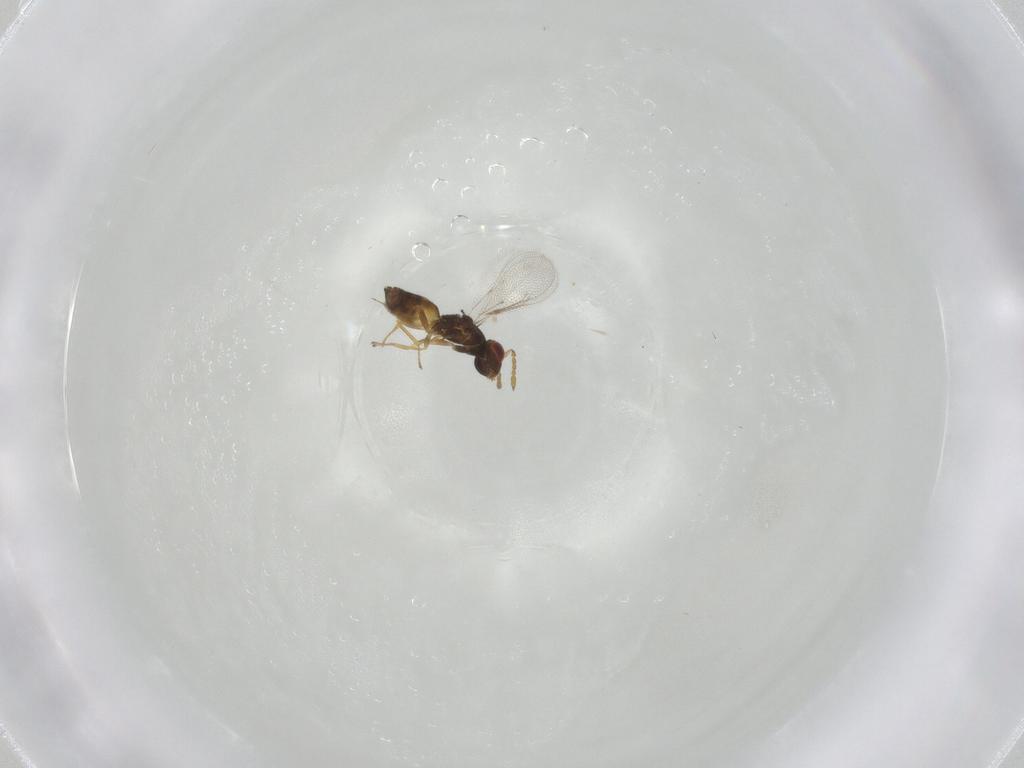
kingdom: Animalia
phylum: Arthropoda
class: Insecta
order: Hymenoptera
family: Eulophidae
